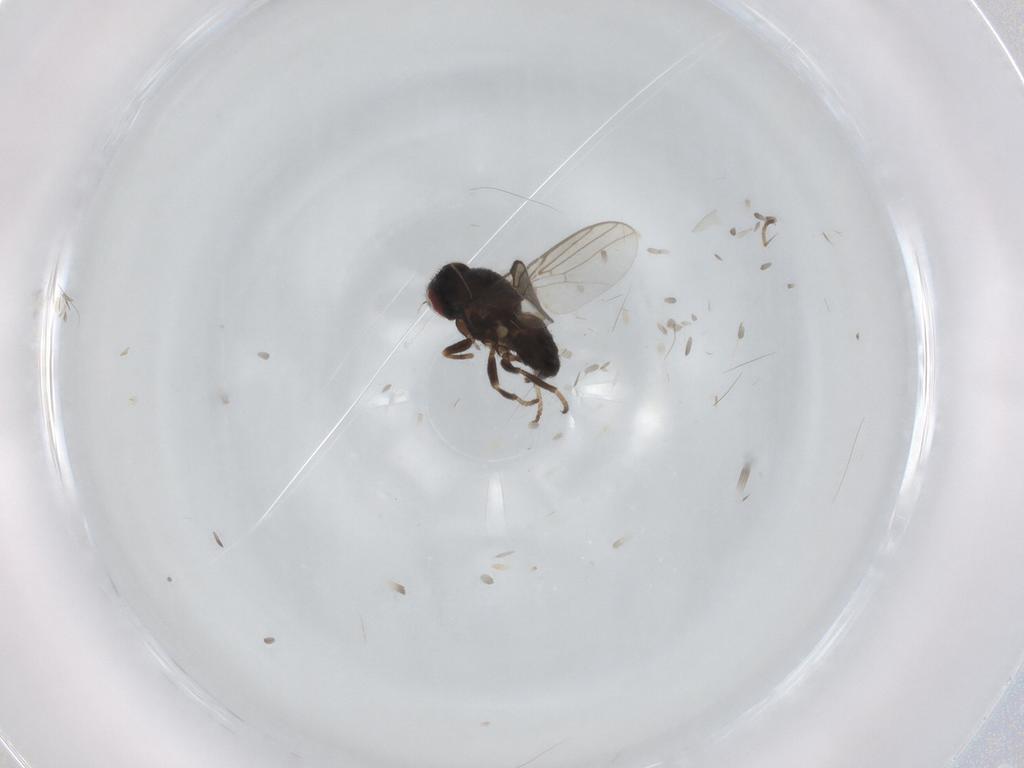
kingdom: Animalia
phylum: Arthropoda
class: Insecta
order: Diptera
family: Chloropidae
